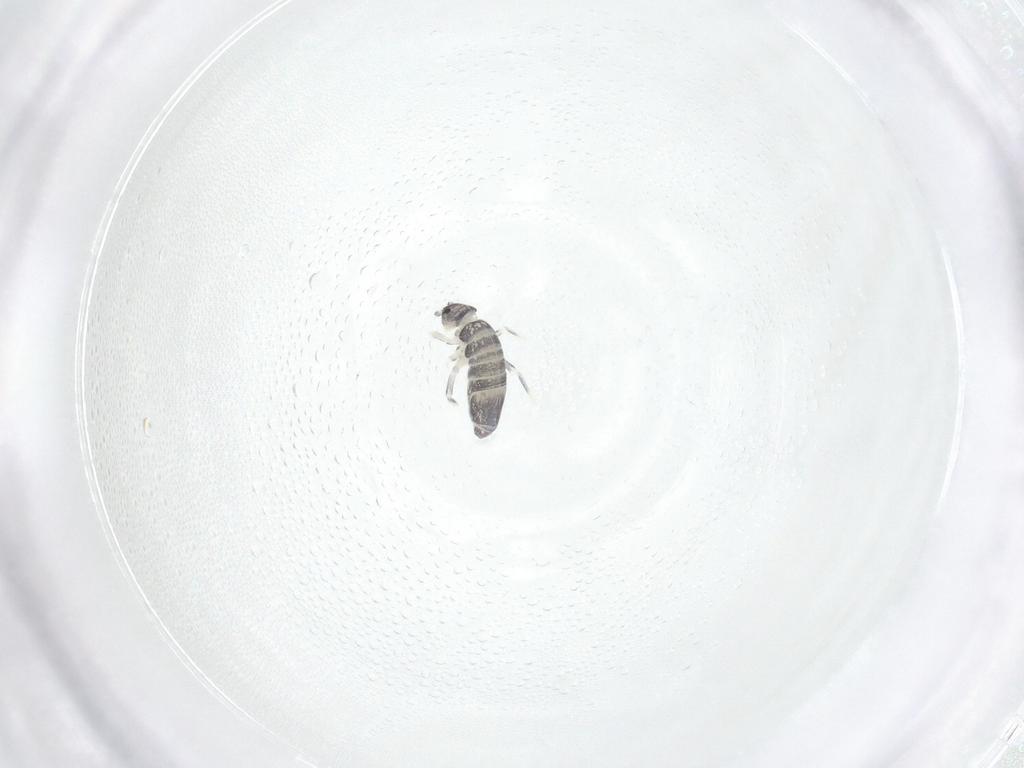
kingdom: Animalia
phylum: Arthropoda
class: Collembola
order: Entomobryomorpha
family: Entomobryidae
